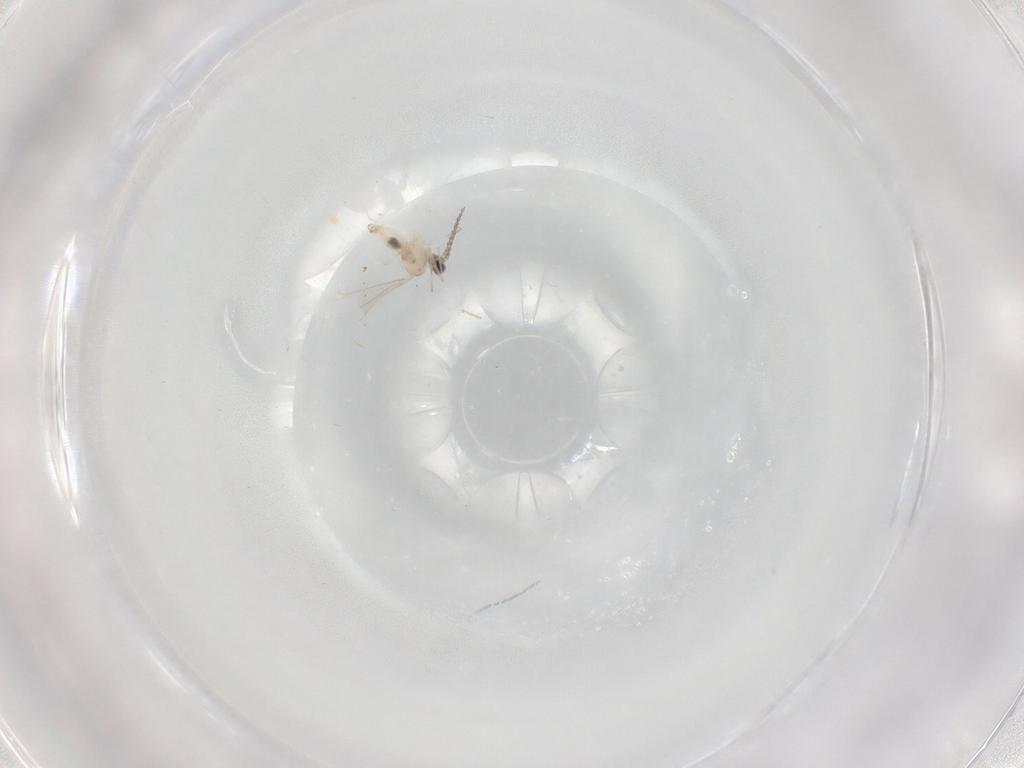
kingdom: Animalia
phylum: Arthropoda
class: Insecta
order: Diptera
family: Cecidomyiidae
